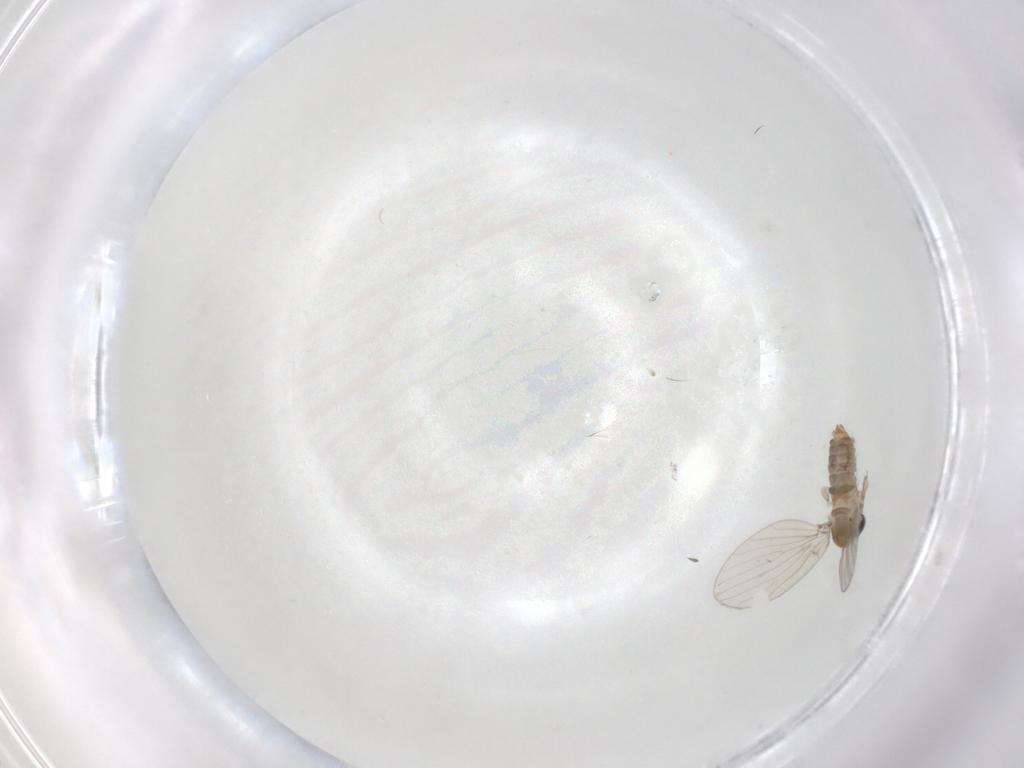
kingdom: Animalia
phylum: Arthropoda
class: Insecta
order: Diptera
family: Psychodidae
